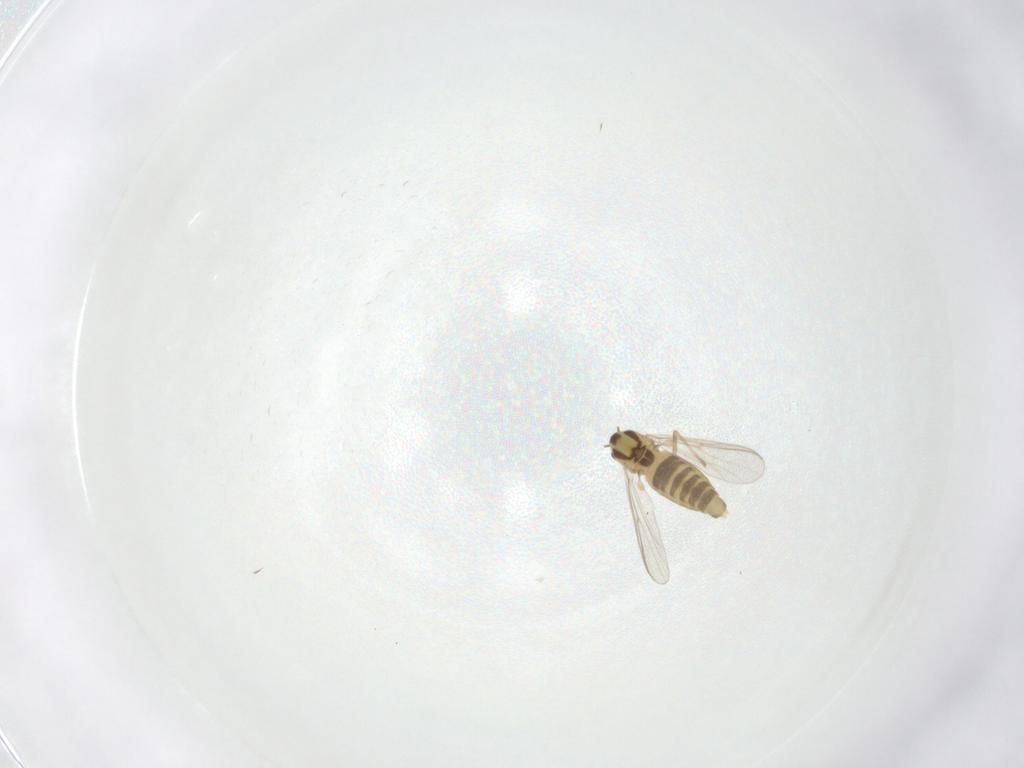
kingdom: Animalia
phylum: Arthropoda
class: Insecta
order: Diptera
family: Chironomidae
